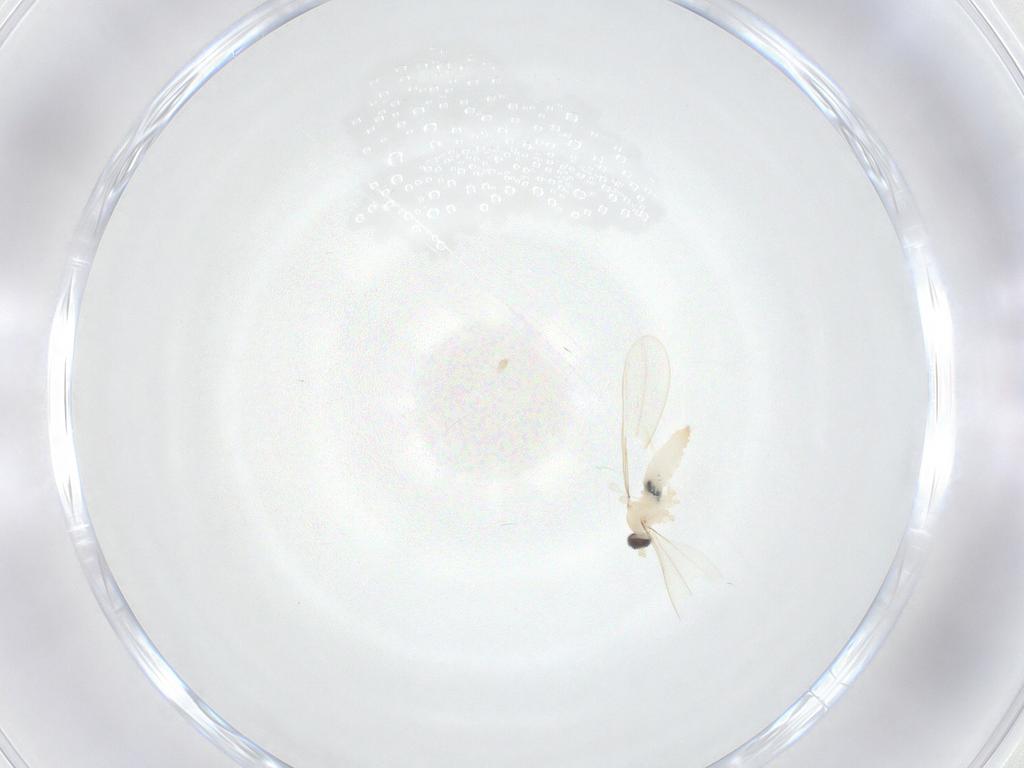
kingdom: Animalia
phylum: Arthropoda
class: Insecta
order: Diptera
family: Cecidomyiidae
